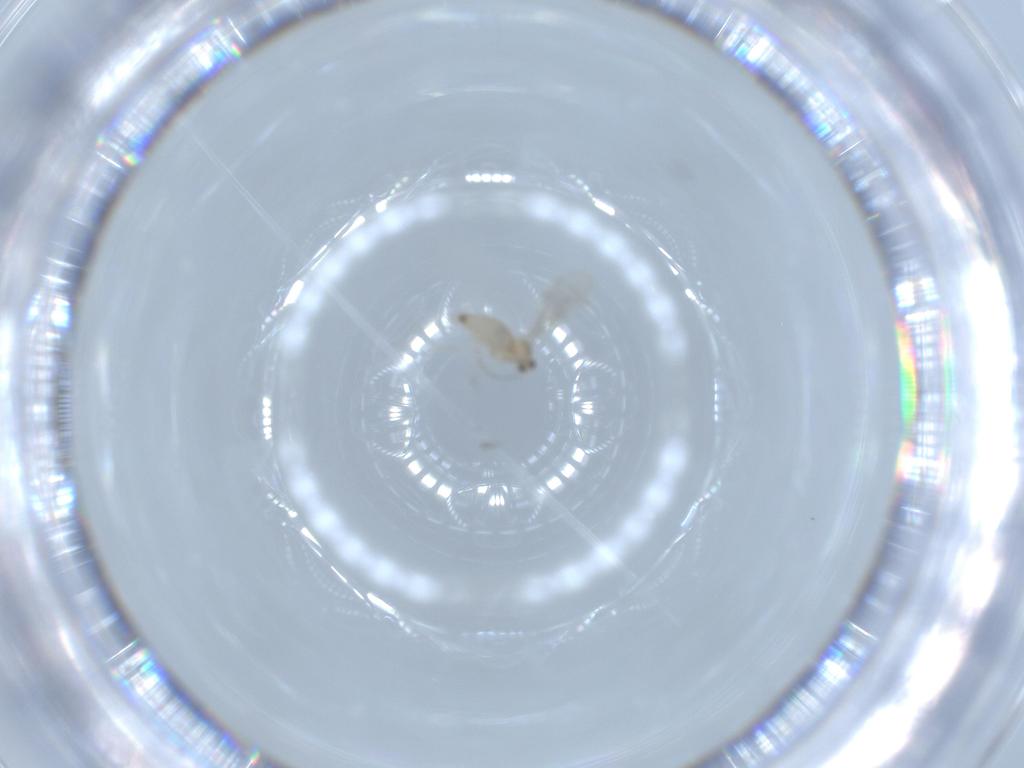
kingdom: Animalia
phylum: Arthropoda
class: Insecta
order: Diptera
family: Cecidomyiidae
